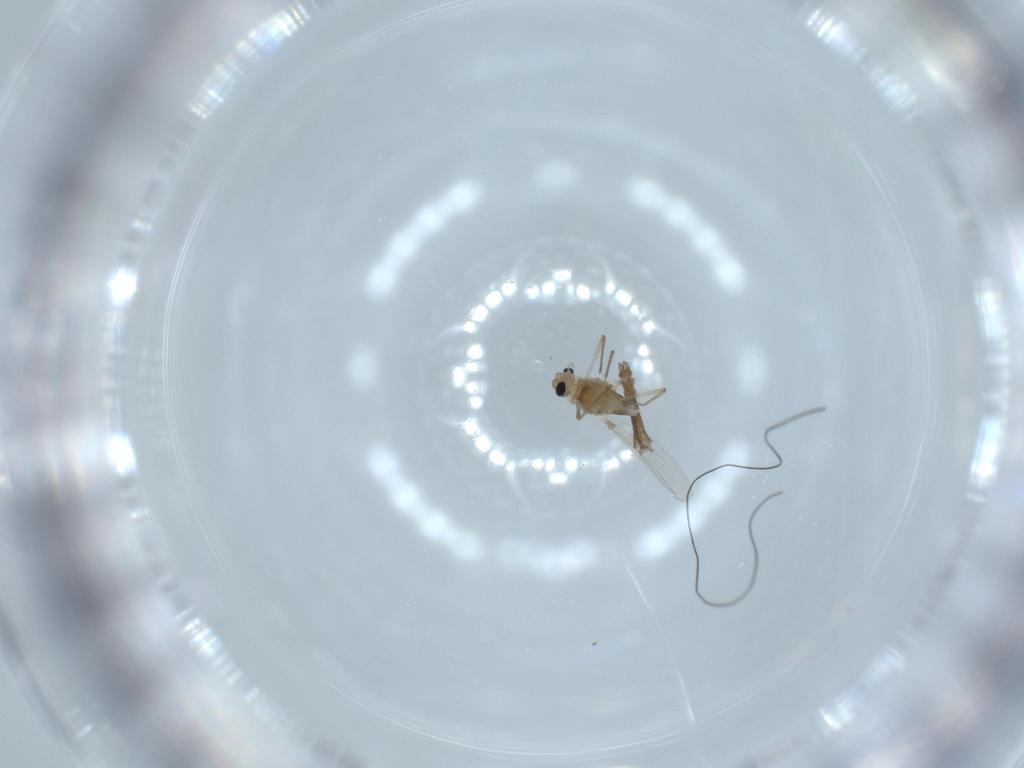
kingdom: Animalia
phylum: Arthropoda
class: Insecta
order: Diptera
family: Chironomidae
